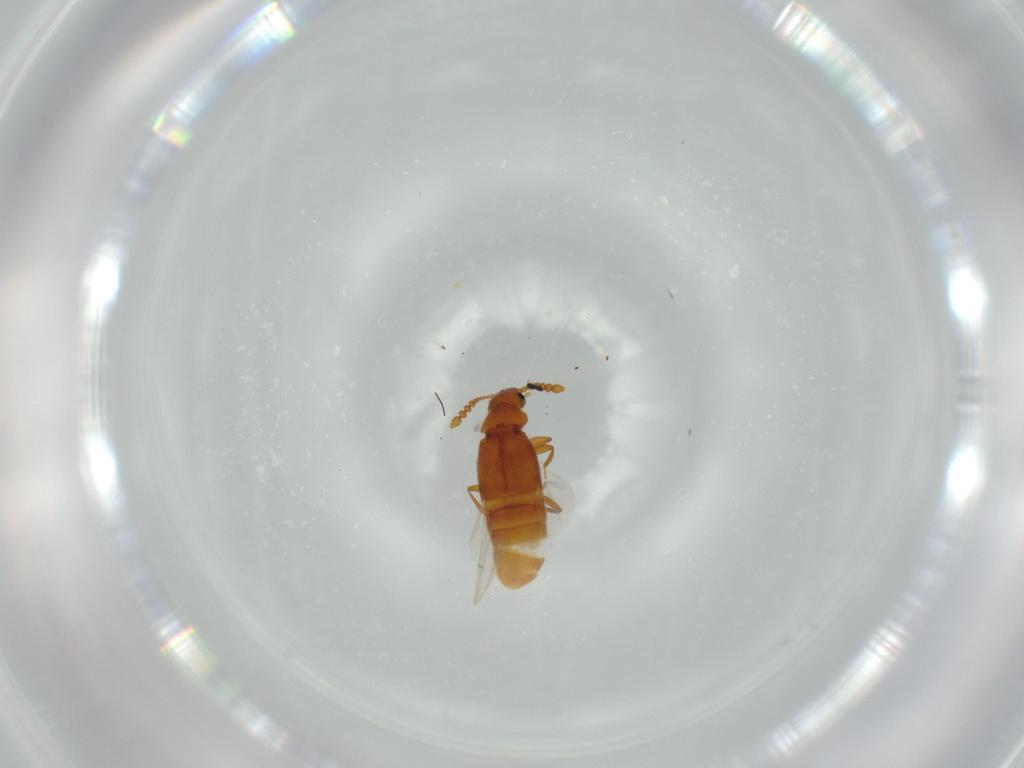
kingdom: Animalia
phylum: Arthropoda
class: Insecta
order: Coleoptera
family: Staphylinidae
